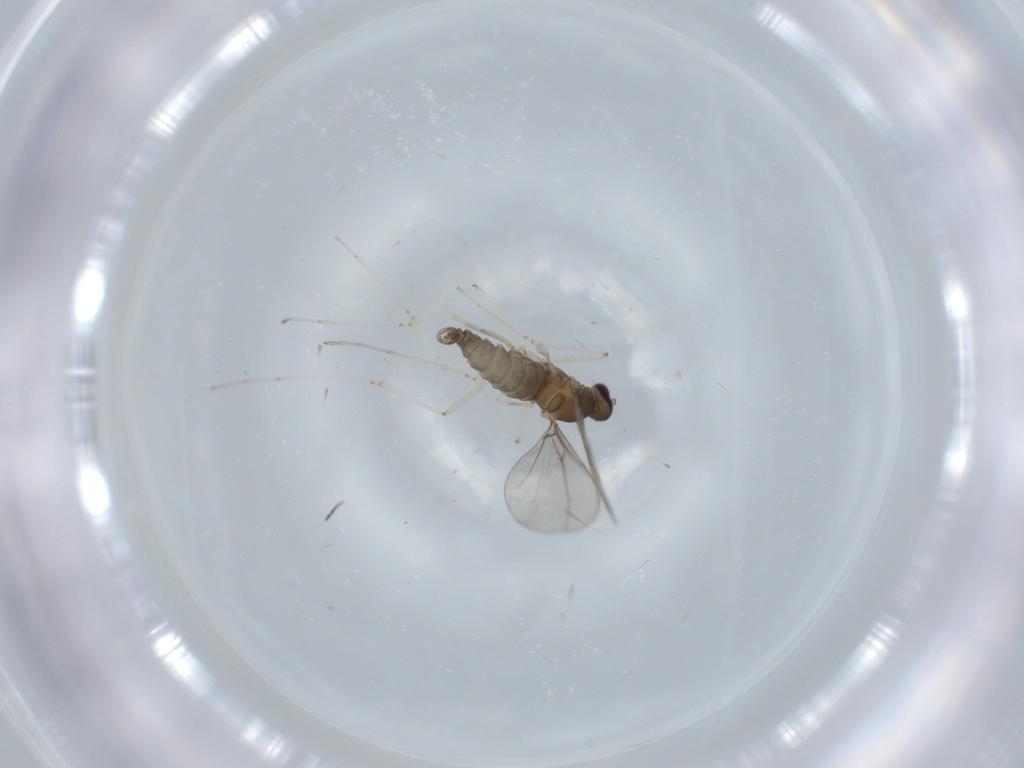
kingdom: Animalia
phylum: Arthropoda
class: Insecta
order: Diptera
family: Cecidomyiidae
